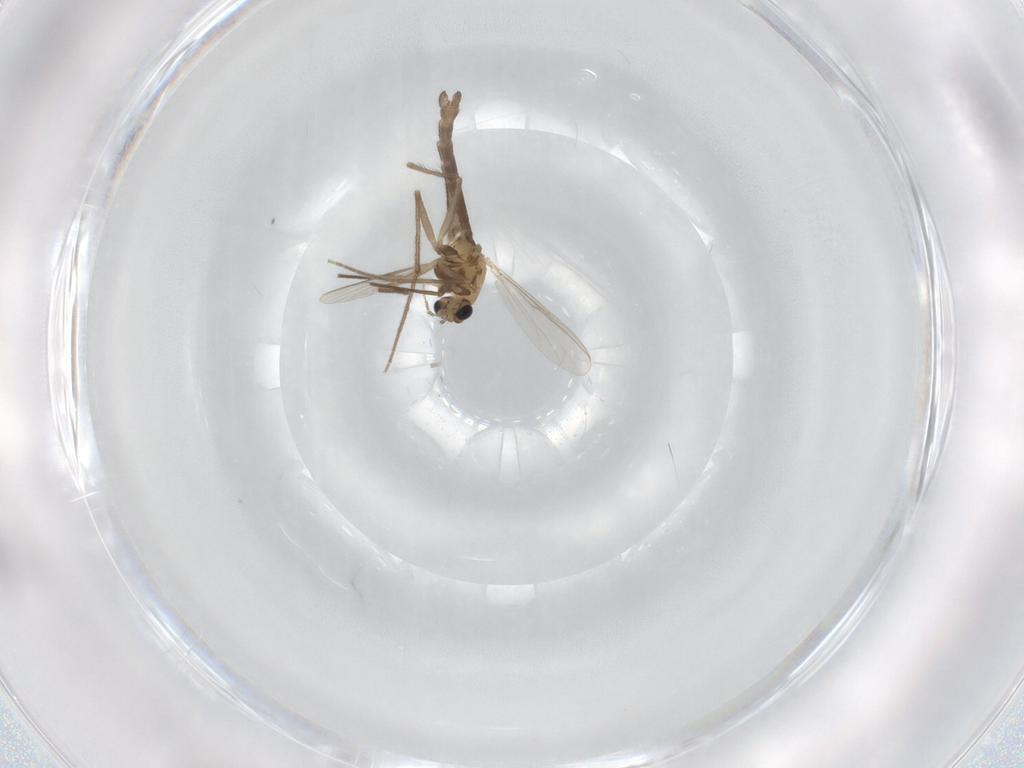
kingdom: Animalia
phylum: Arthropoda
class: Insecta
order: Diptera
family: Chironomidae
